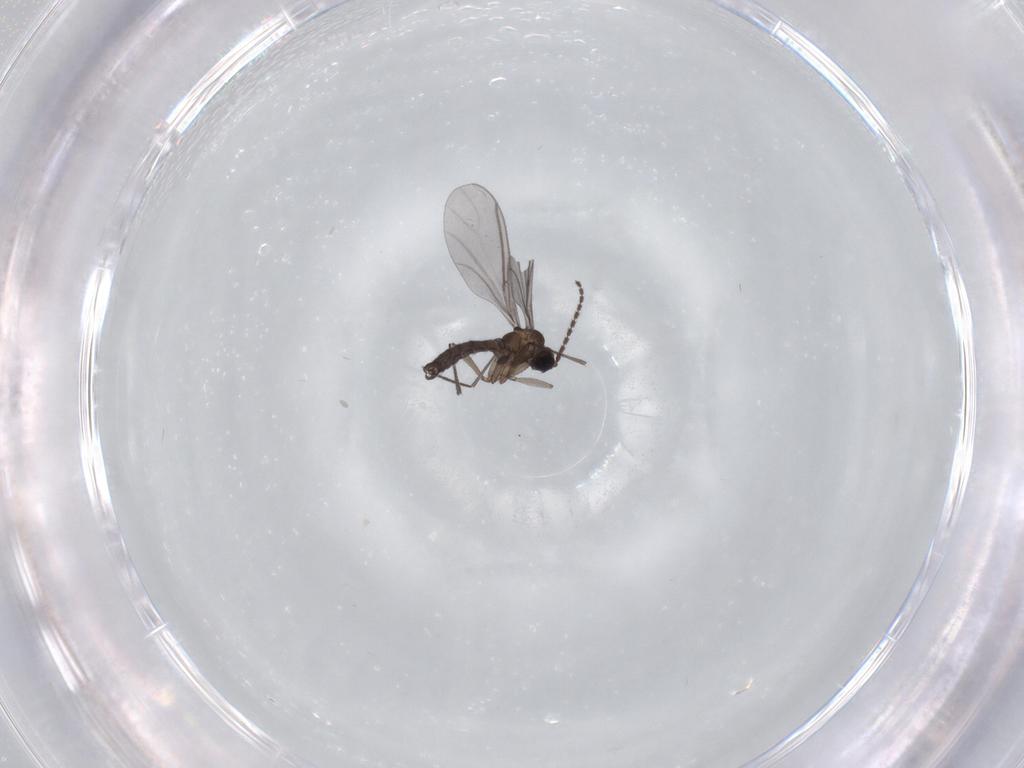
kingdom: Animalia
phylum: Arthropoda
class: Insecta
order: Diptera
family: Cecidomyiidae
